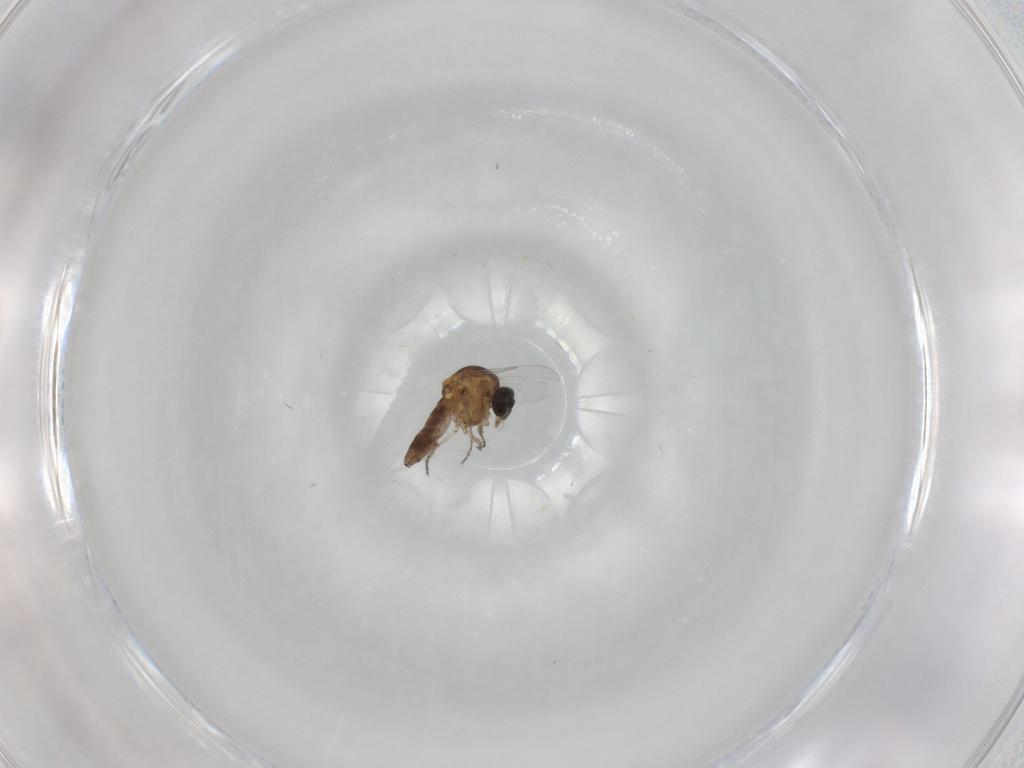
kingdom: Animalia
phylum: Arthropoda
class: Insecta
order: Diptera
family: Ceratopogonidae
